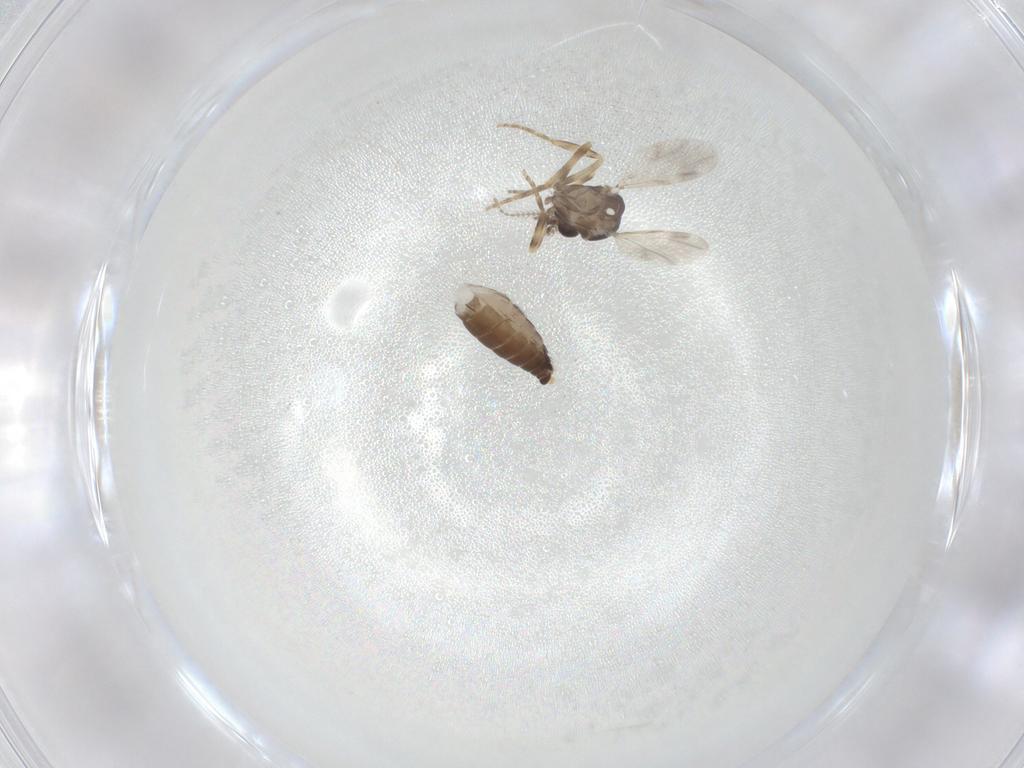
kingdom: Animalia
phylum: Arthropoda
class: Insecta
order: Diptera
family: Ceratopogonidae
